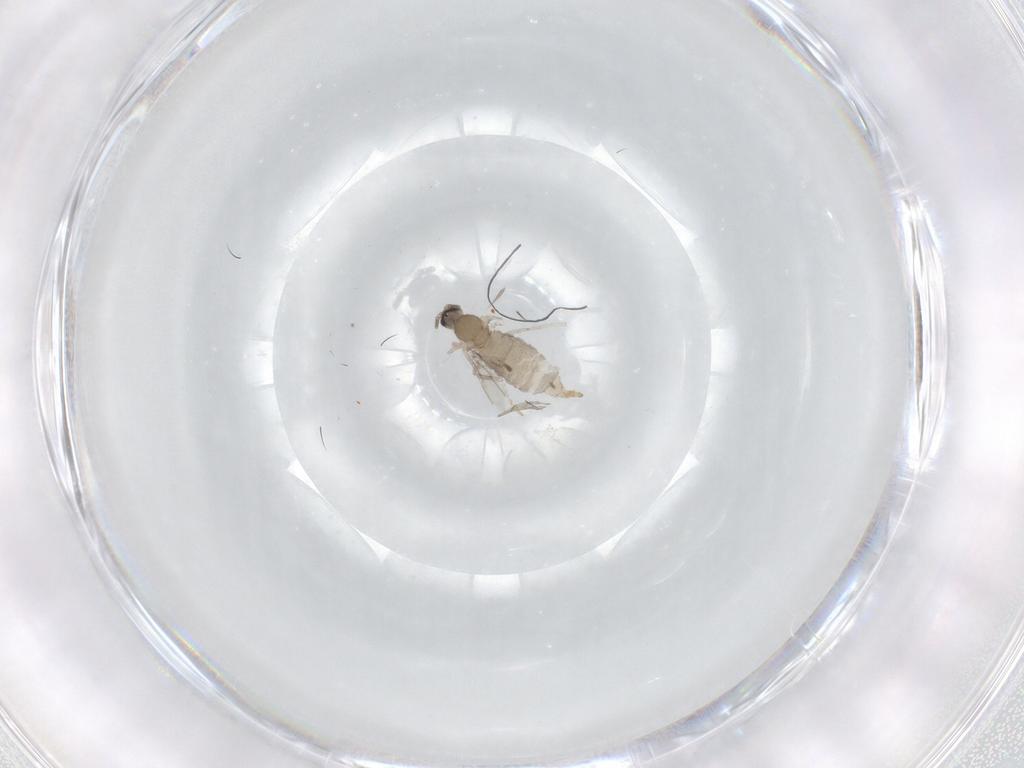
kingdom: Animalia
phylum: Arthropoda
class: Insecta
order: Diptera
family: Cecidomyiidae
